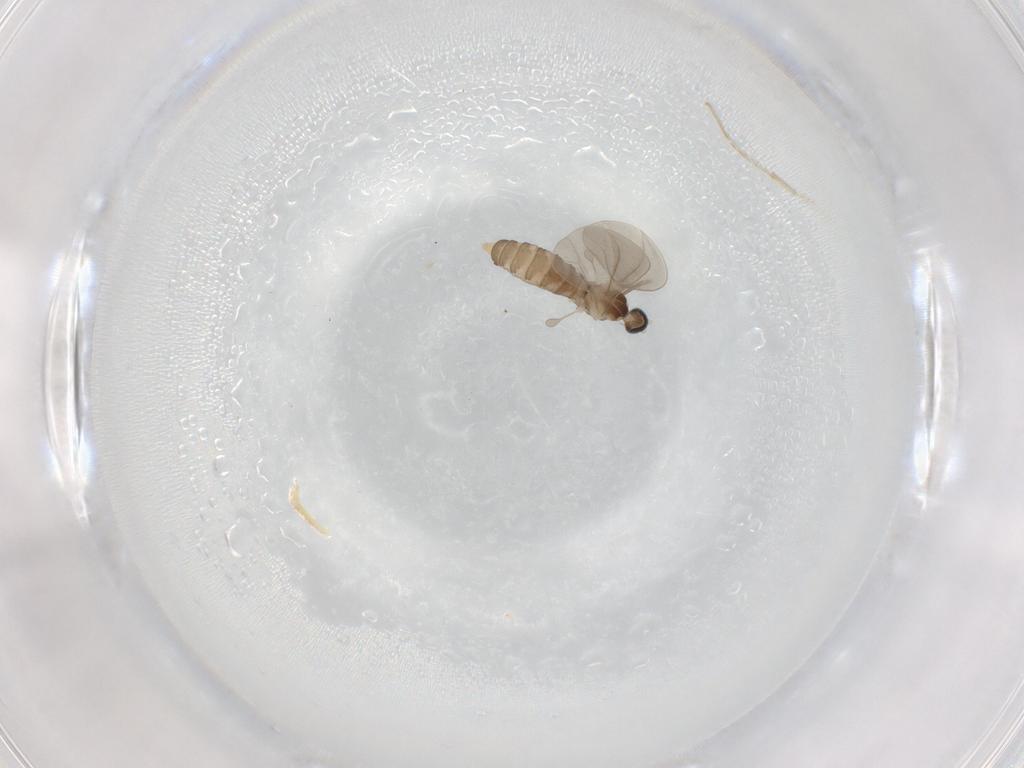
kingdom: Animalia
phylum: Arthropoda
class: Insecta
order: Diptera
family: Cecidomyiidae
